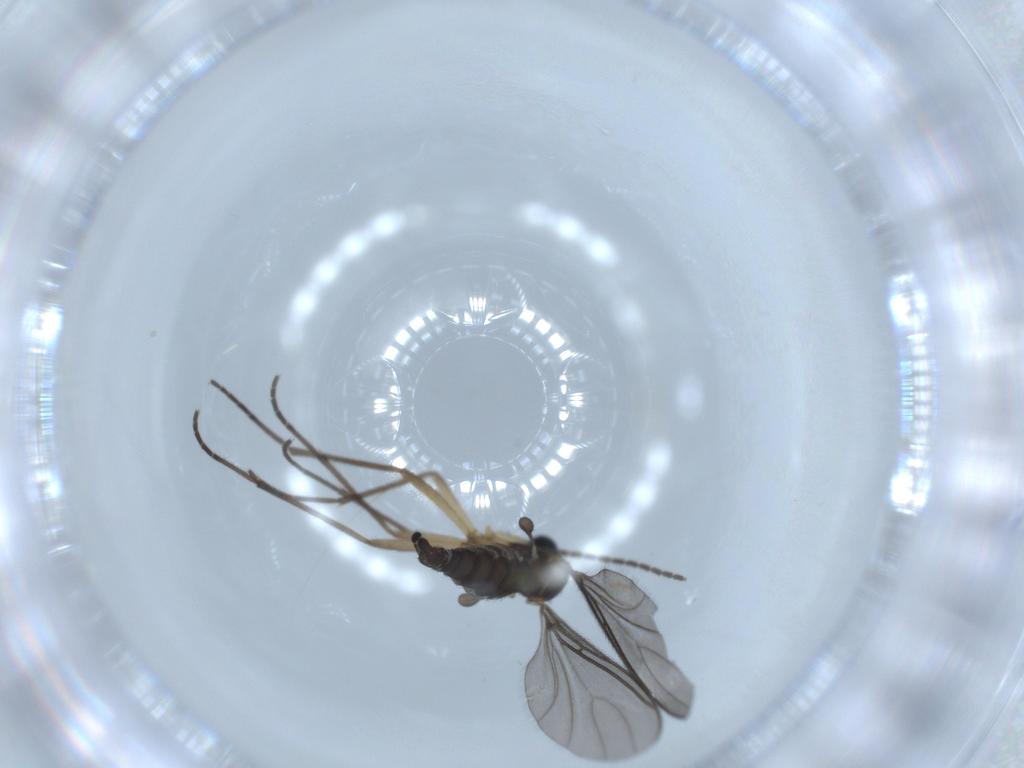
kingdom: Animalia
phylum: Arthropoda
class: Insecta
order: Diptera
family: Sciaridae
